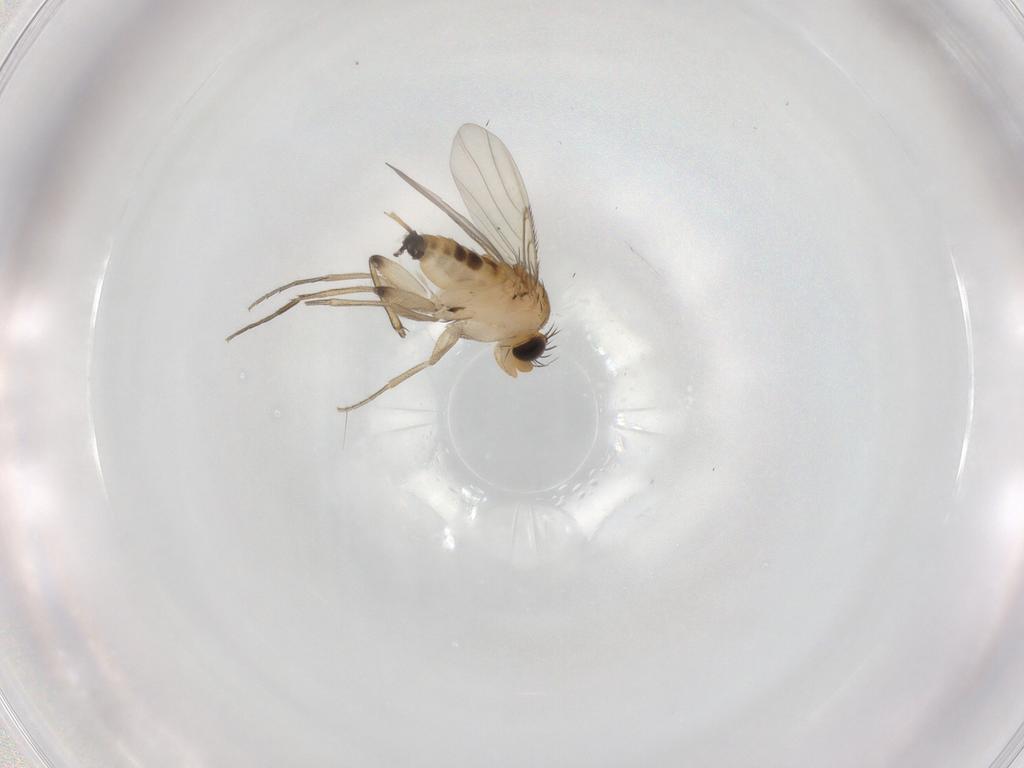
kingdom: Animalia
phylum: Arthropoda
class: Insecta
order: Diptera
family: Phoridae
